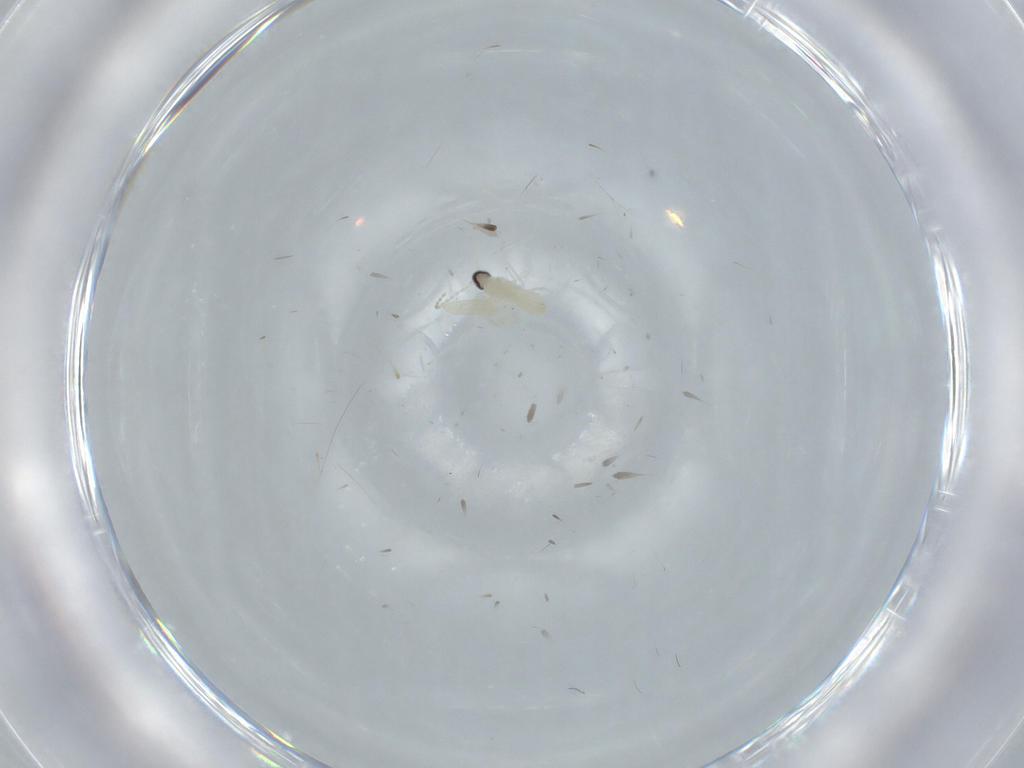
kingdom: Animalia
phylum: Arthropoda
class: Insecta
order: Diptera
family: Cecidomyiidae
